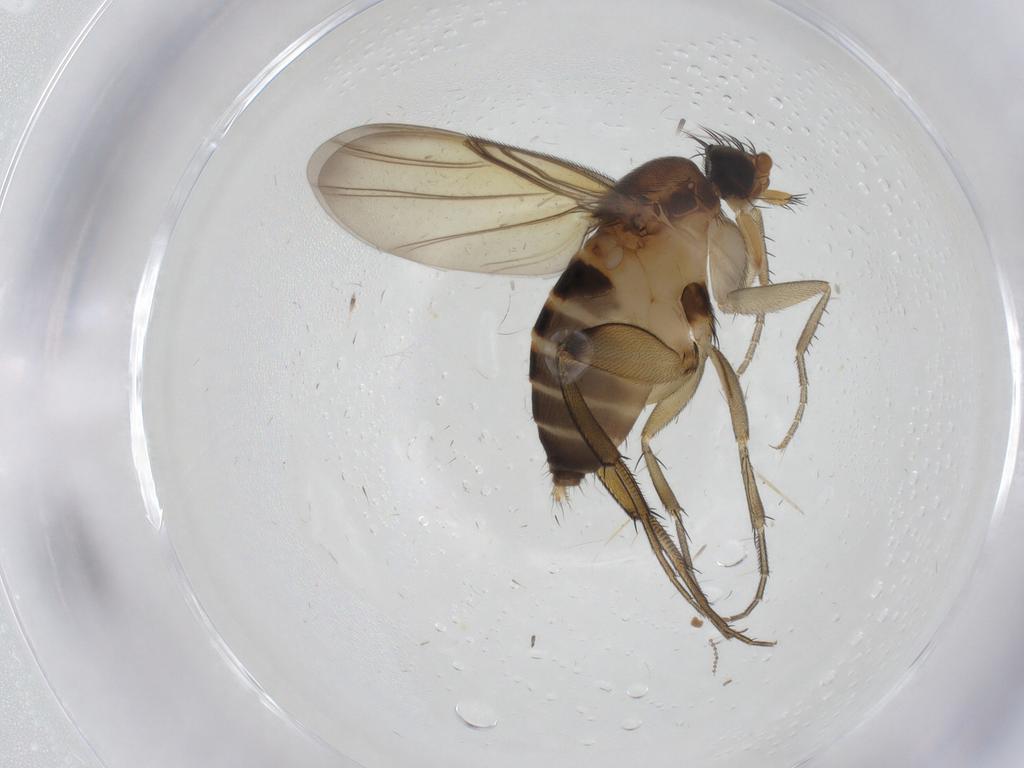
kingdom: Animalia
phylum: Arthropoda
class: Insecta
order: Diptera
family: Phoridae
